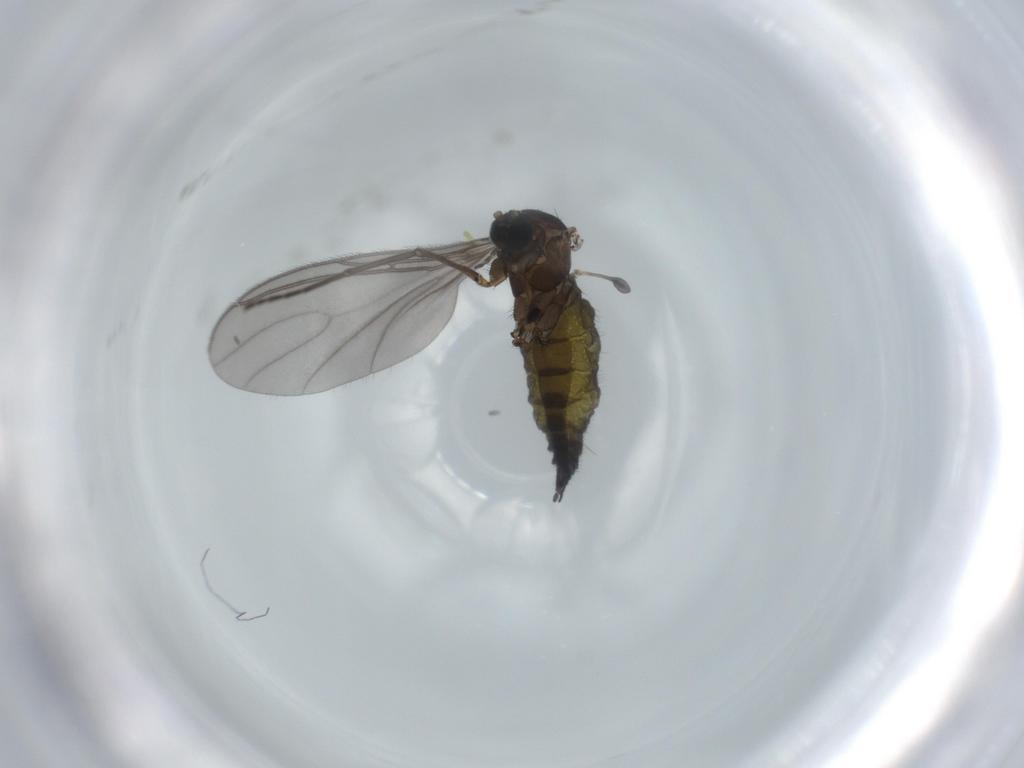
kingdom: Animalia
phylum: Arthropoda
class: Insecta
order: Diptera
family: Sciaridae
